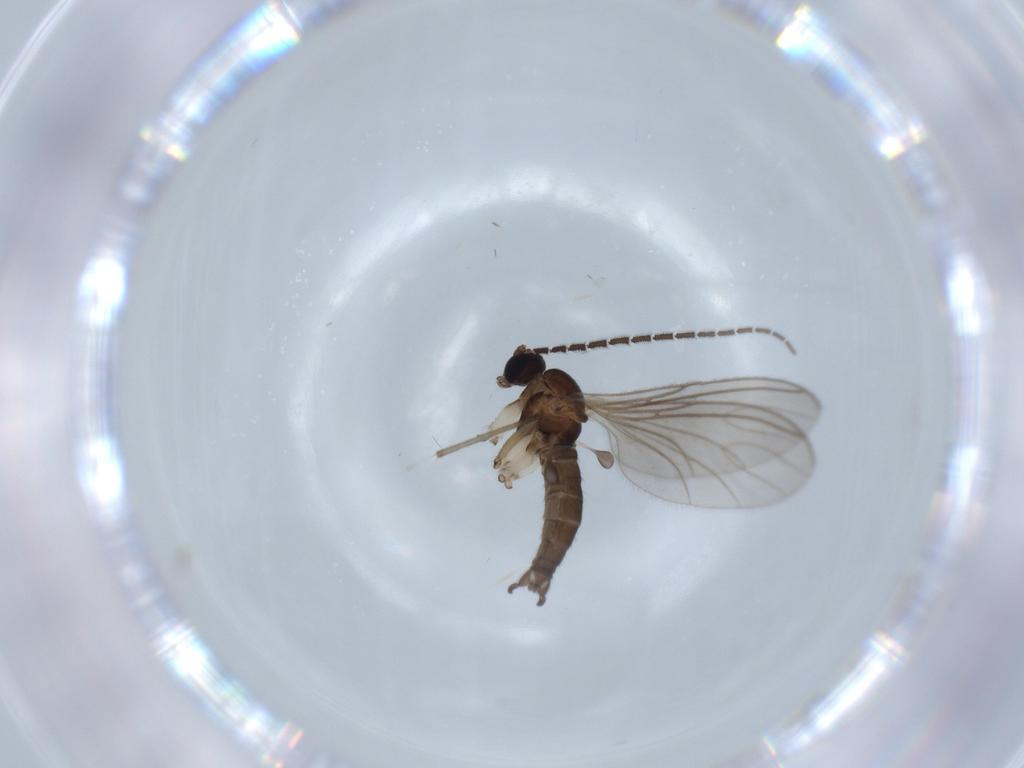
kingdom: Animalia
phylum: Arthropoda
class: Insecta
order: Diptera
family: Sciaridae
